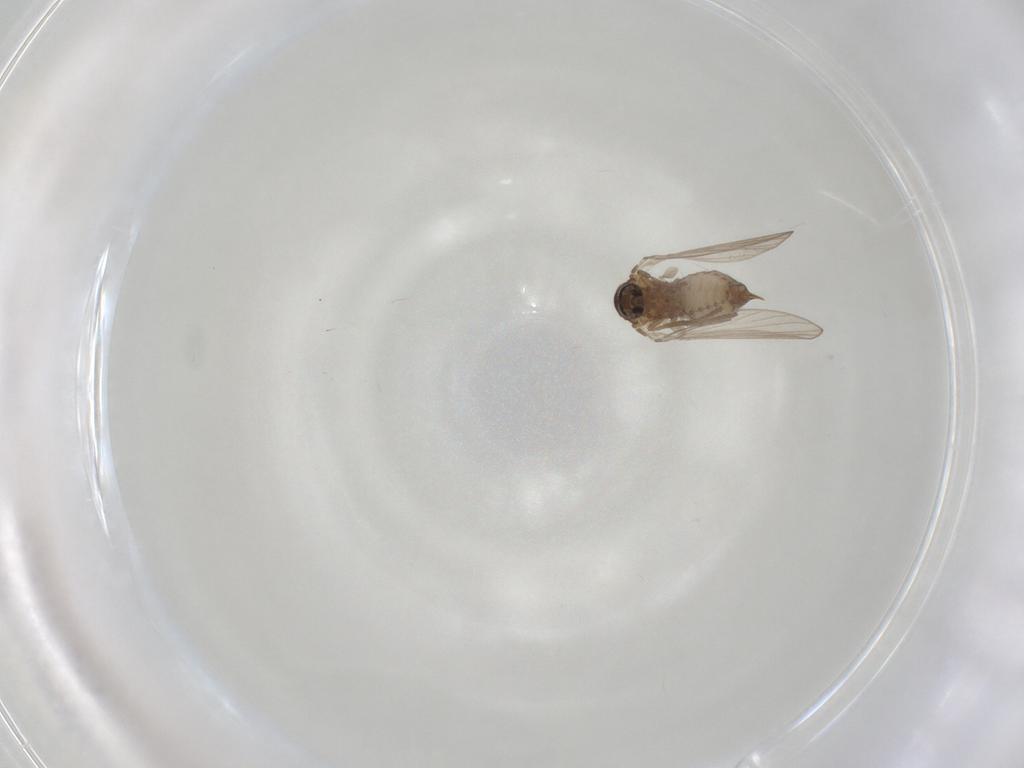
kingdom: Animalia
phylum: Arthropoda
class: Insecta
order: Diptera
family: Psychodidae
